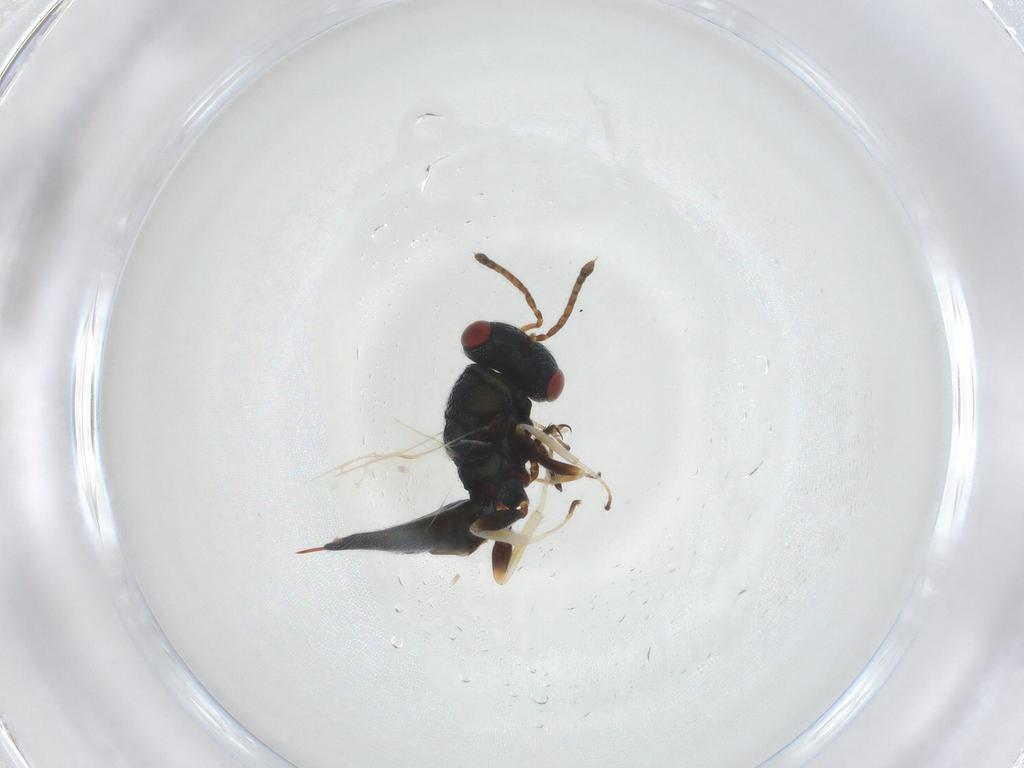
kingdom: Animalia
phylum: Arthropoda
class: Insecta
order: Hymenoptera
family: Pteromalidae
